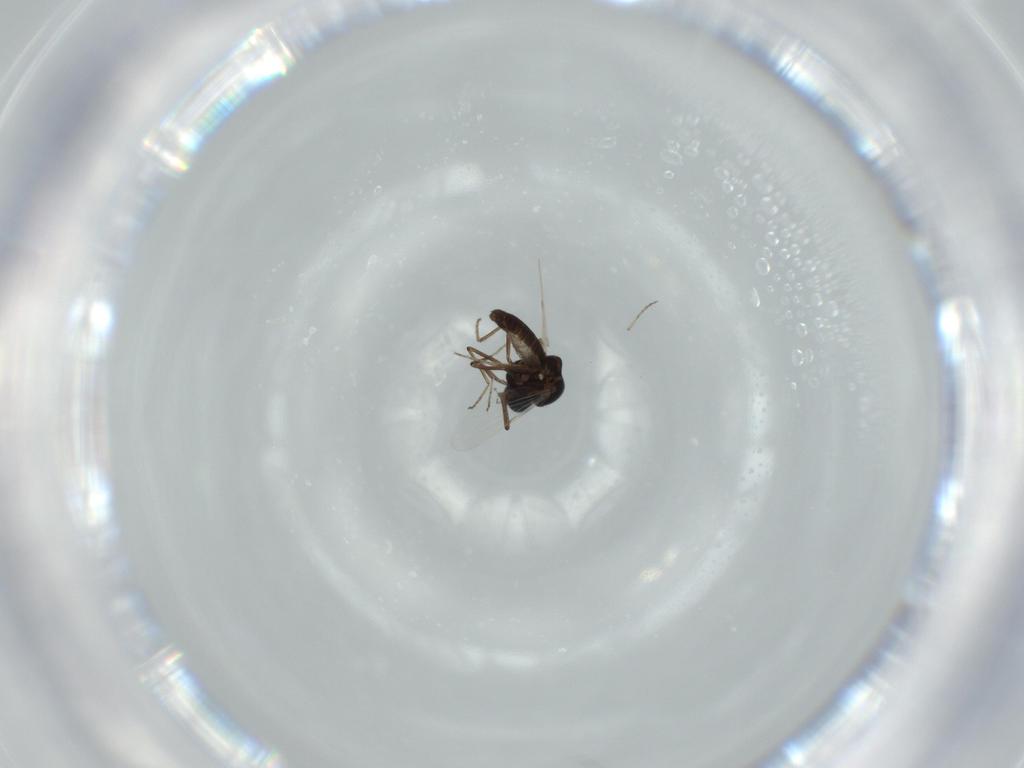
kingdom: Animalia
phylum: Arthropoda
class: Insecta
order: Diptera
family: Ceratopogonidae
